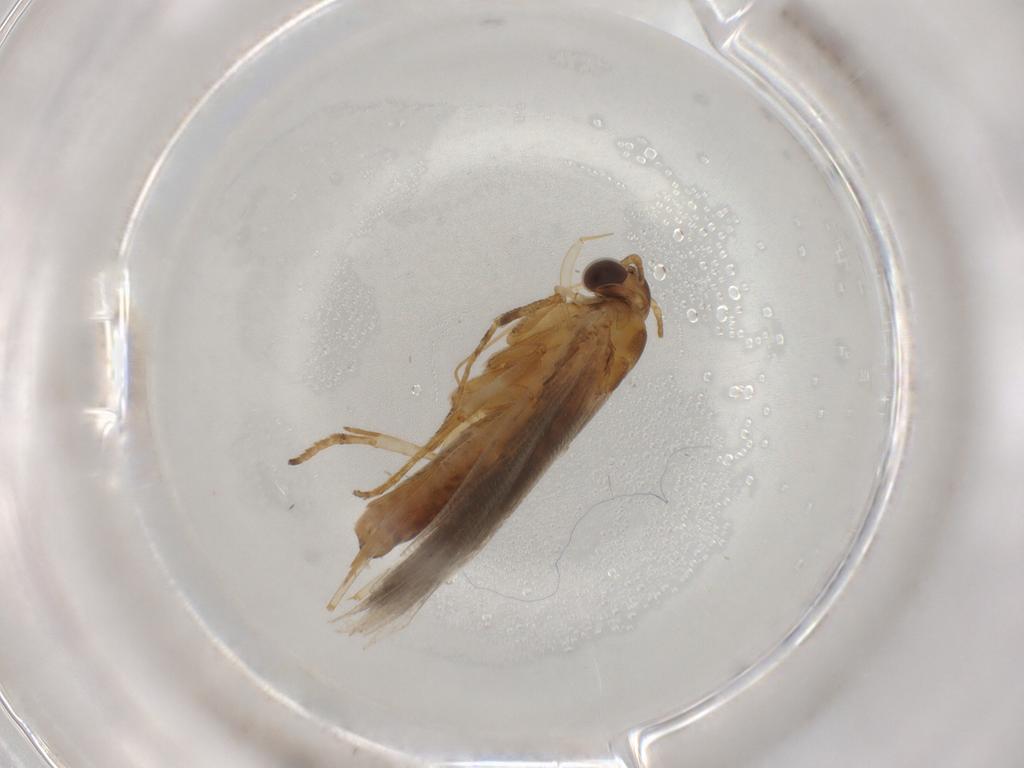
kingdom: Animalia
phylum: Arthropoda
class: Insecta
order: Lepidoptera
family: Gelechiidae
